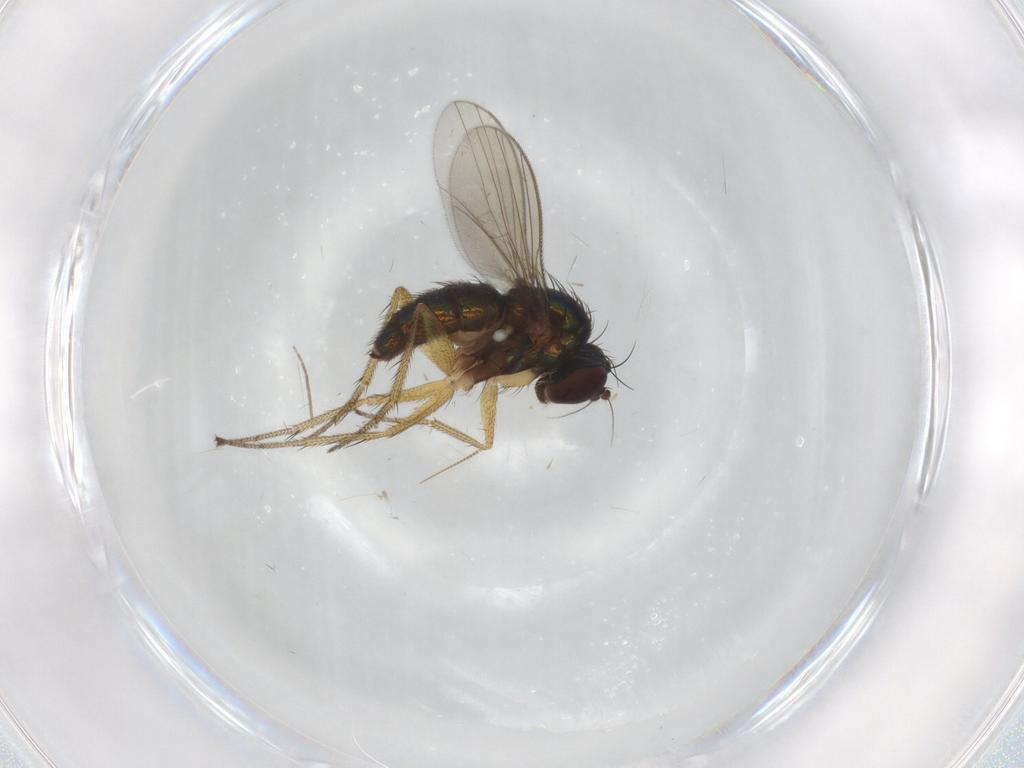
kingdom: Animalia
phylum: Arthropoda
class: Insecta
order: Diptera
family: Dolichopodidae
